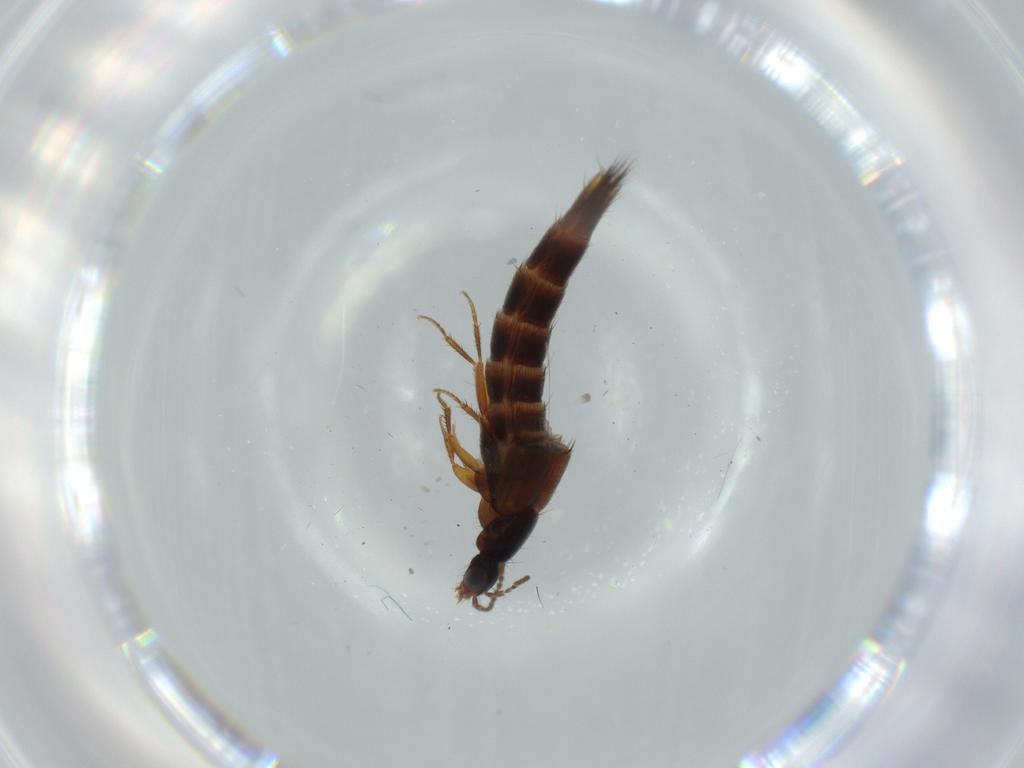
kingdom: Animalia
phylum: Arthropoda
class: Insecta
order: Coleoptera
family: Staphylinidae
